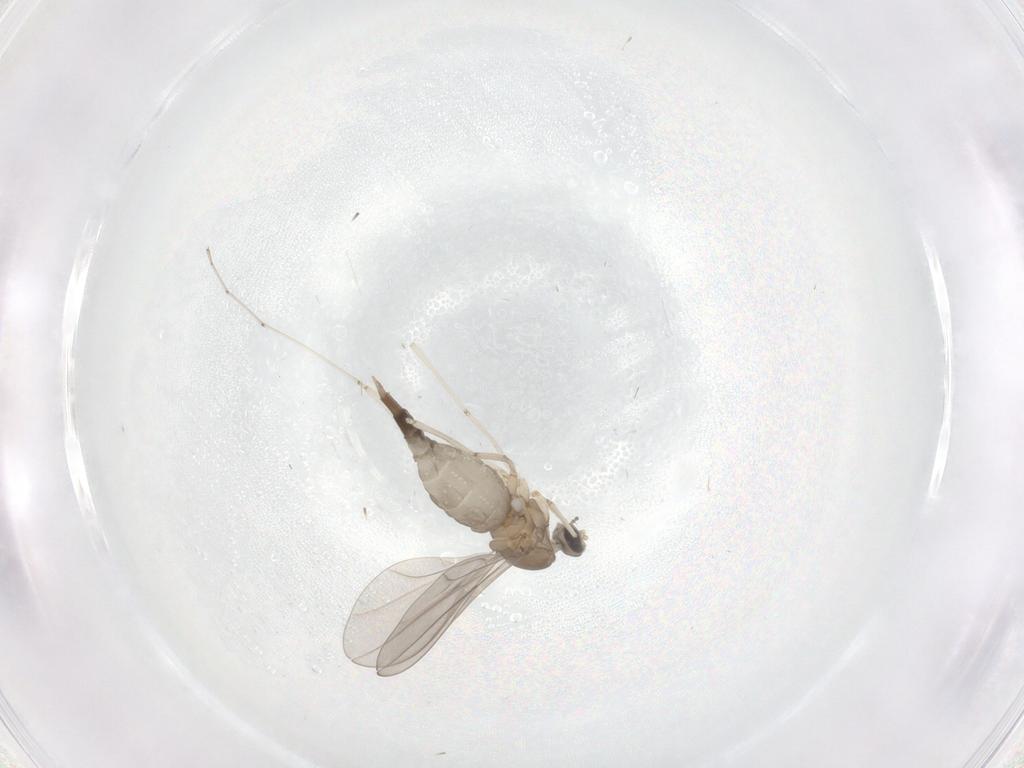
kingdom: Animalia
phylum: Arthropoda
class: Insecta
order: Diptera
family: Cecidomyiidae
